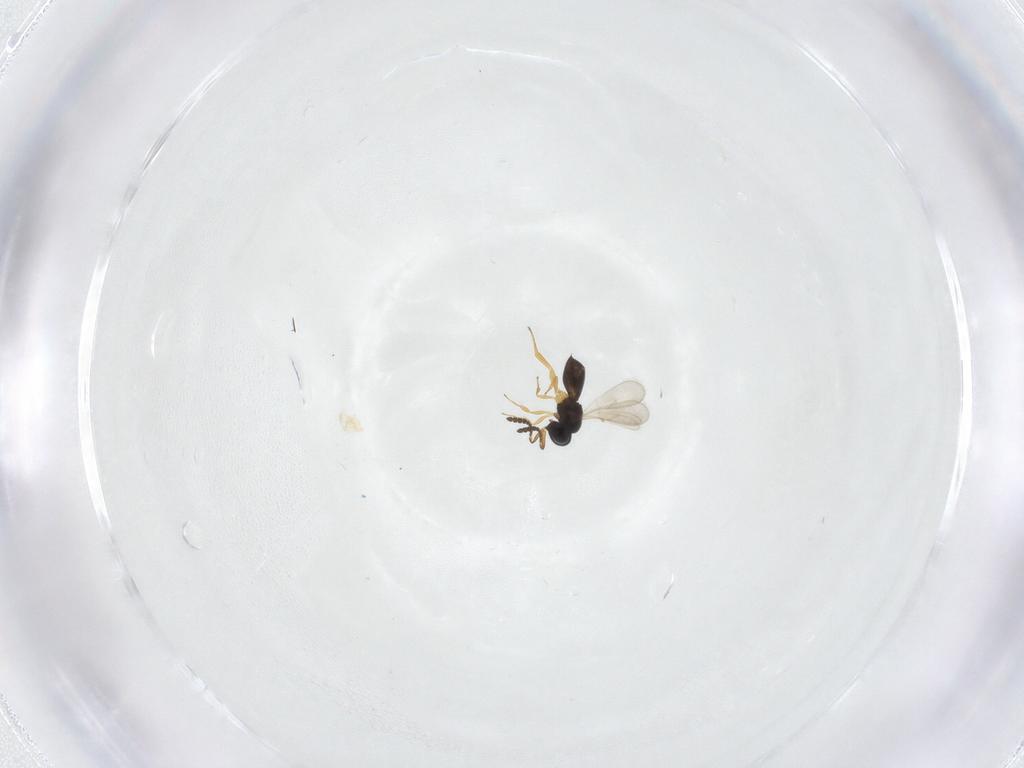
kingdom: Animalia
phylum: Arthropoda
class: Insecta
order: Hymenoptera
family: Scelionidae
